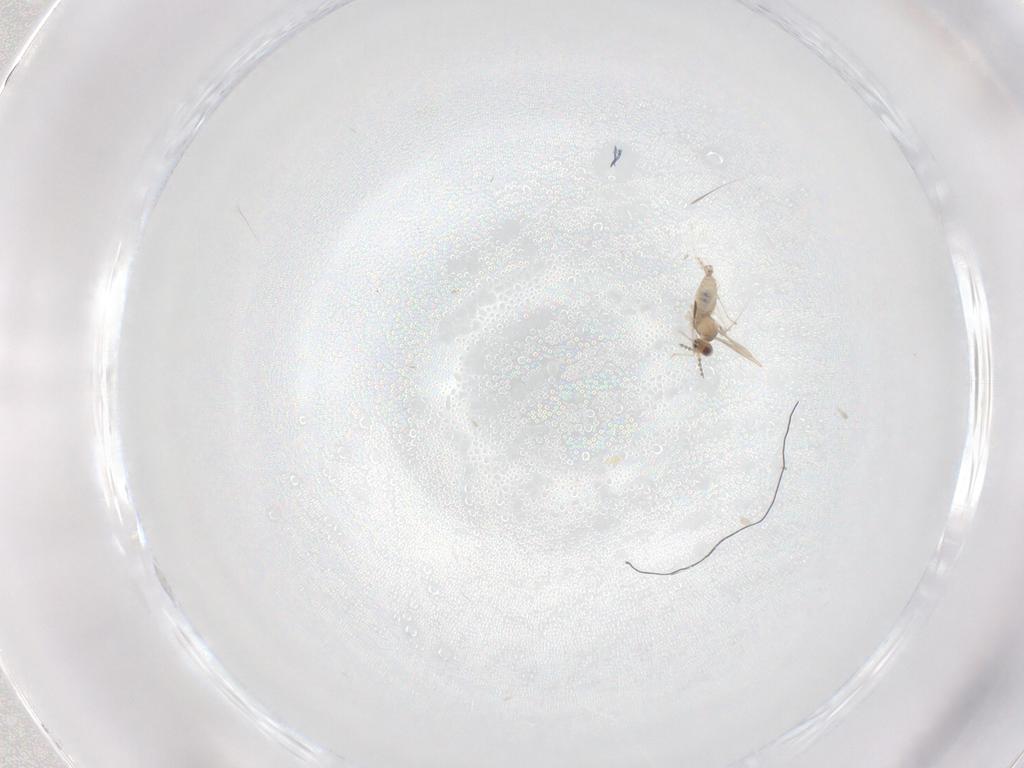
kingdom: Animalia
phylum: Arthropoda
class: Insecta
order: Diptera
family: Cecidomyiidae
